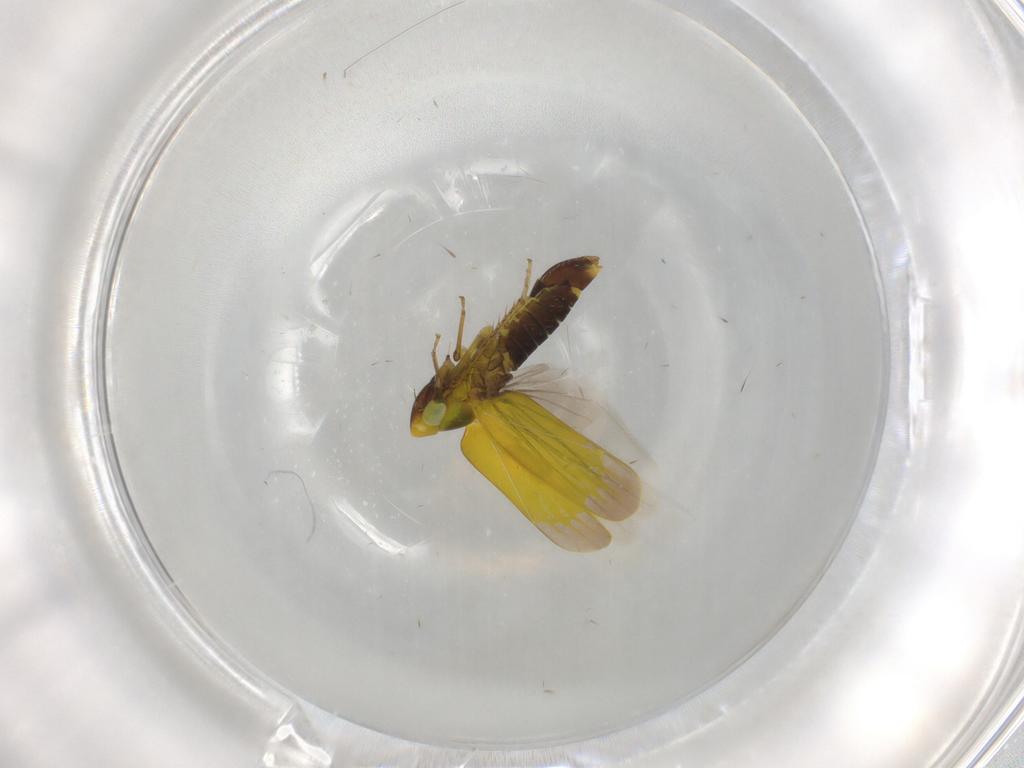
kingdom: Animalia
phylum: Arthropoda
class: Insecta
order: Hemiptera
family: Cicadellidae
